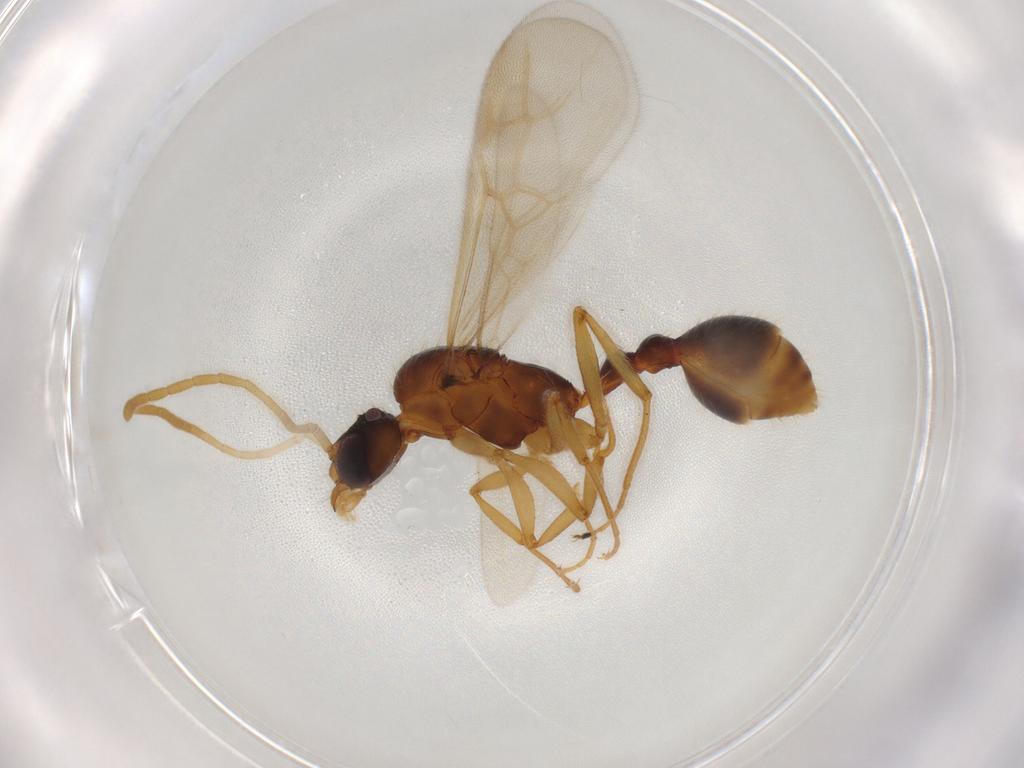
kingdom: Animalia
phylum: Arthropoda
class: Insecta
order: Hymenoptera
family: Formicidae
